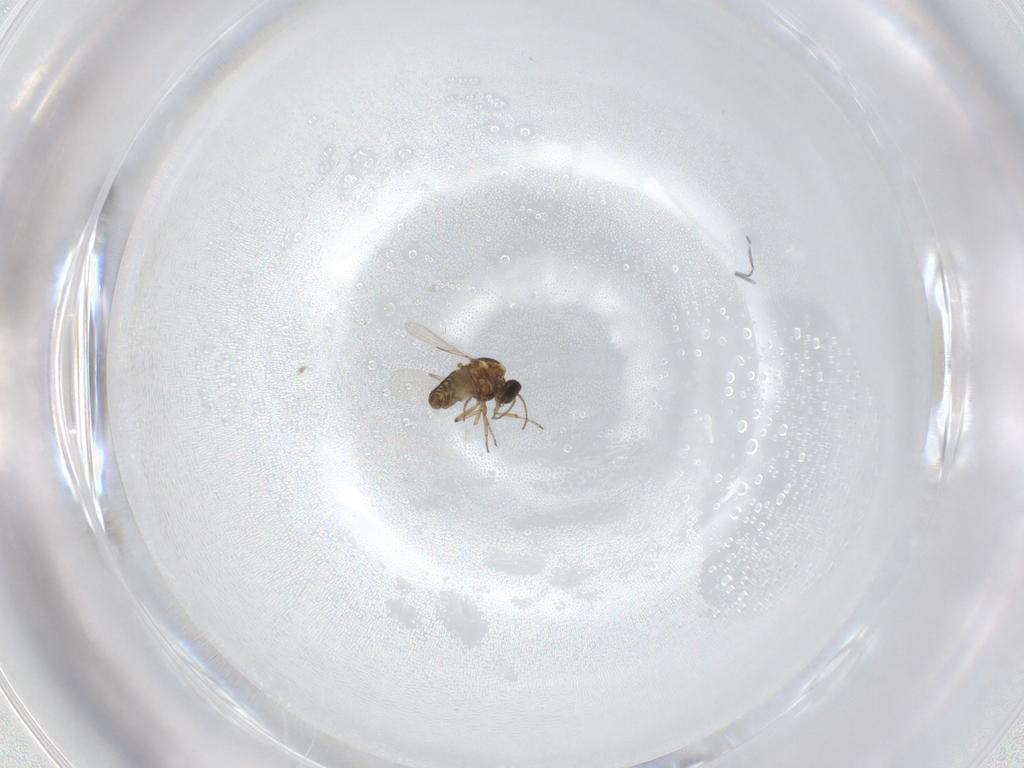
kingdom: Animalia
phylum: Arthropoda
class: Insecta
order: Diptera
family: Ceratopogonidae
